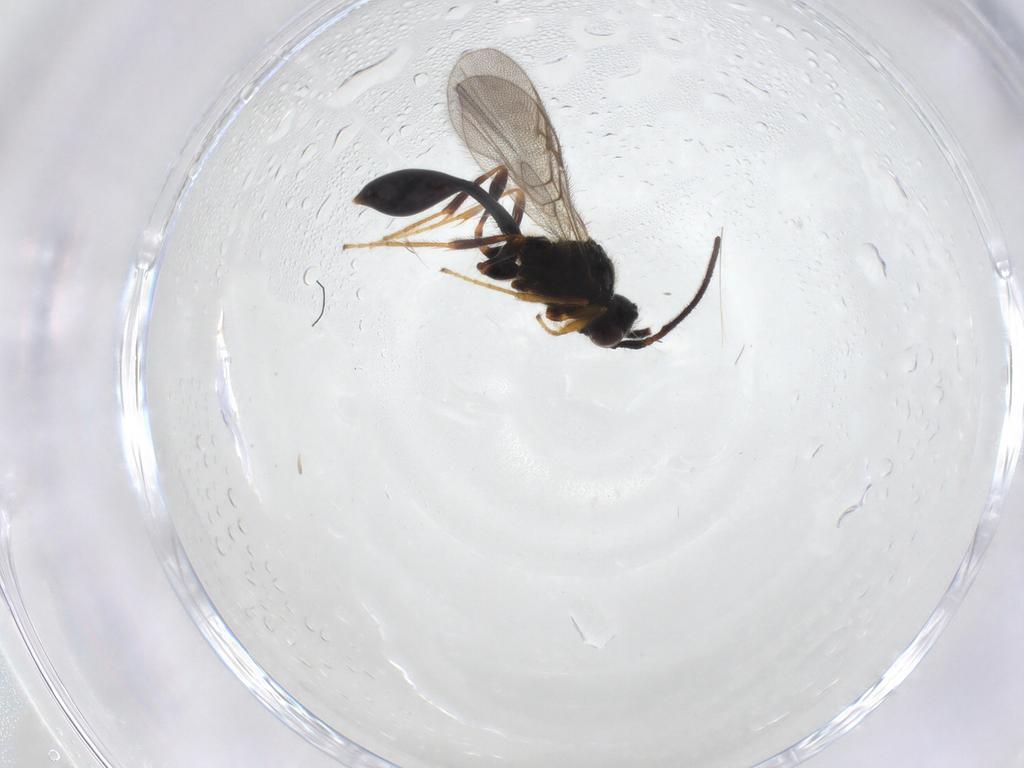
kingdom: Animalia
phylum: Arthropoda
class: Insecta
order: Hymenoptera
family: Diapriidae
